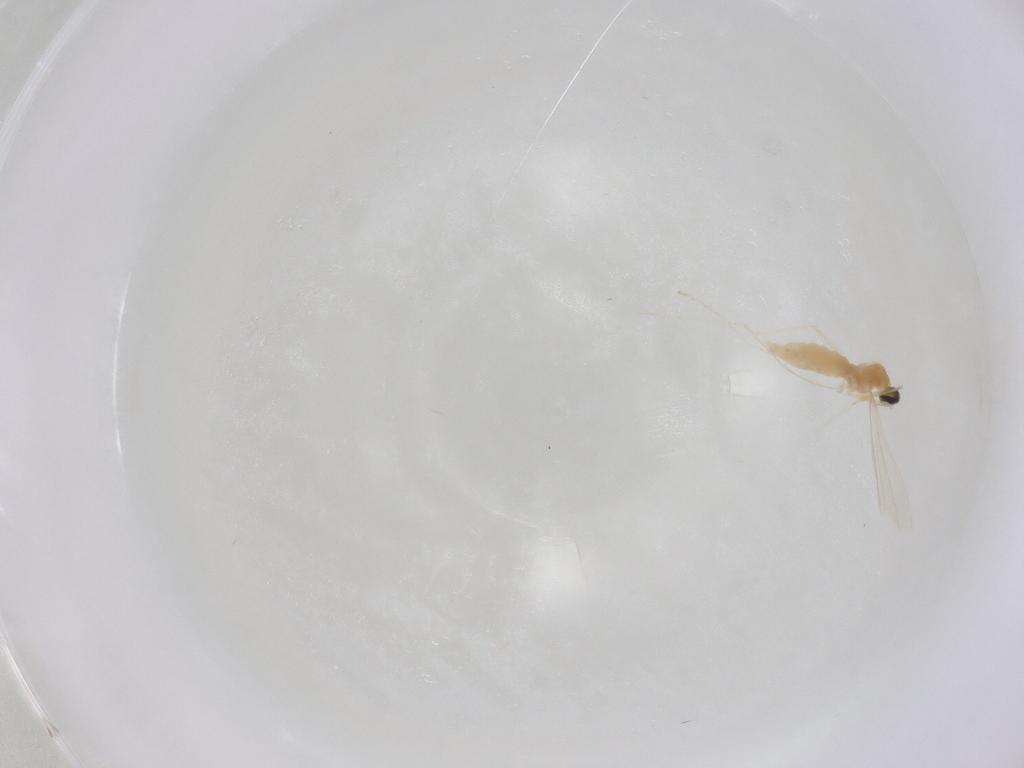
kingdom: Animalia
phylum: Arthropoda
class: Insecta
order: Diptera
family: Cecidomyiidae
